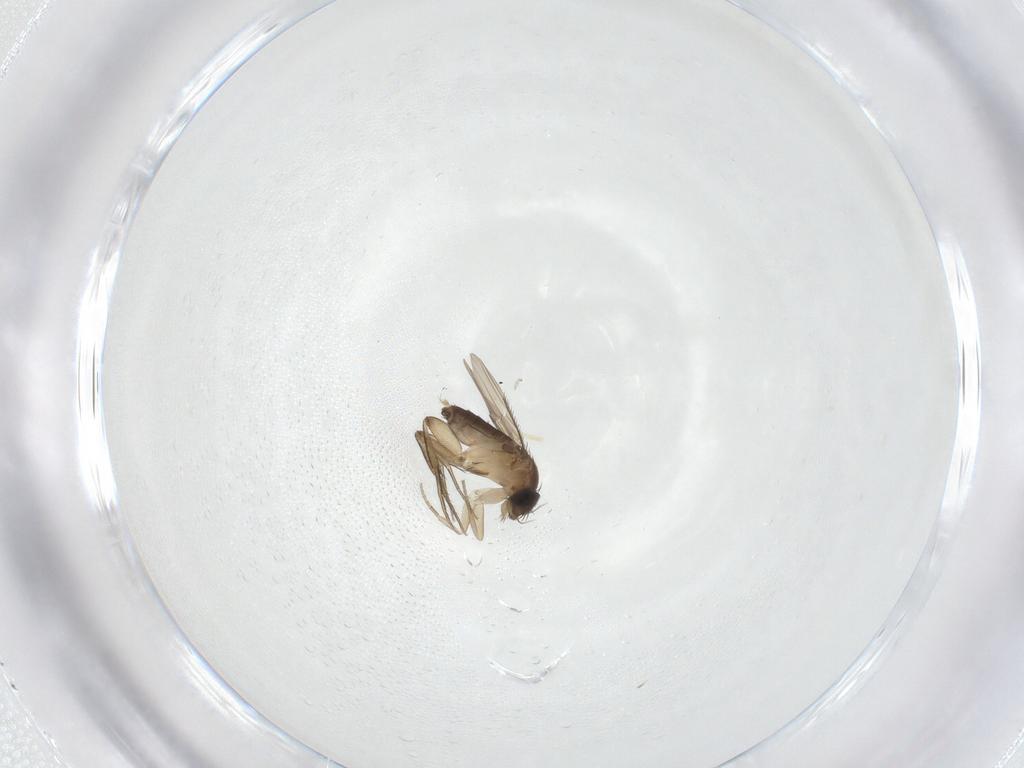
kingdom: Animalia
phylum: Arthropoda
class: Insecta
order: Diptera
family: Phoridae
